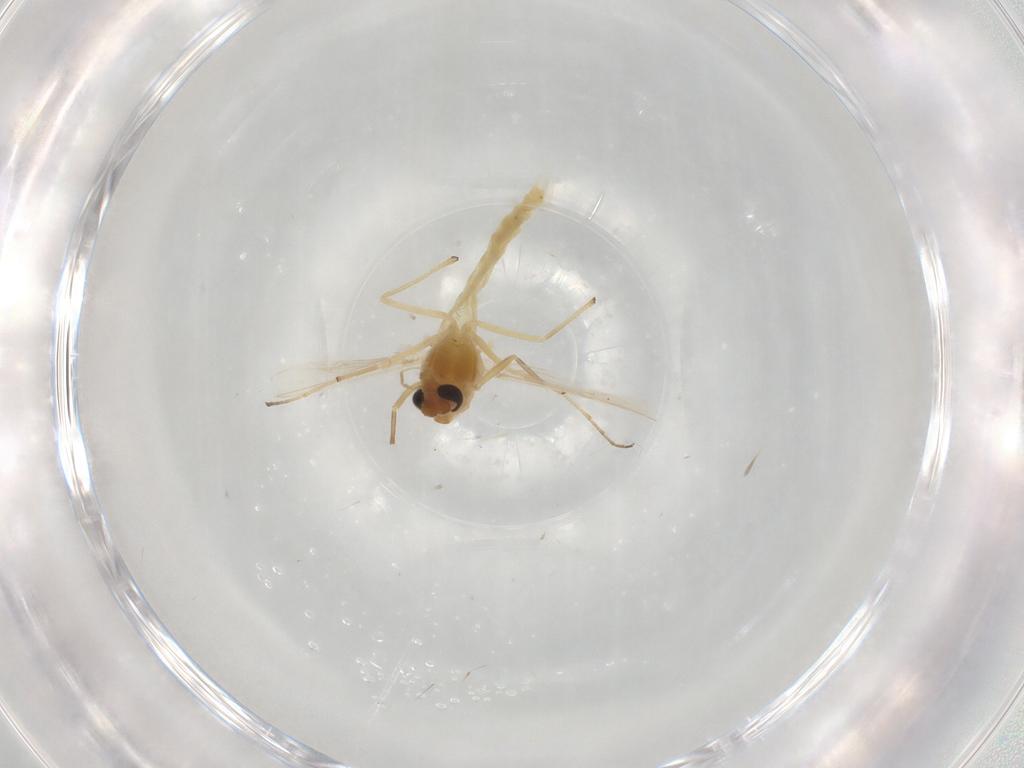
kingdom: Animalia
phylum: Arthropoda
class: Insecta
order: Diptera
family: Chironomidae
